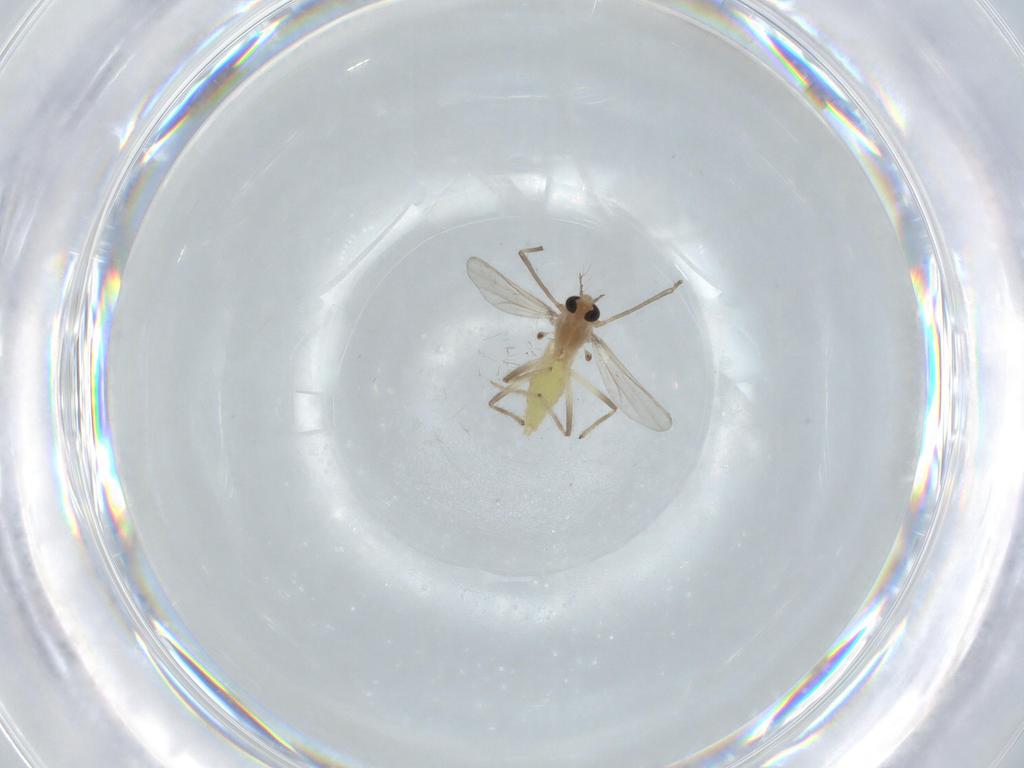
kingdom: Animalia
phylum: Arthropoda
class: Insecta
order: Diptera
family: Chironomidae
